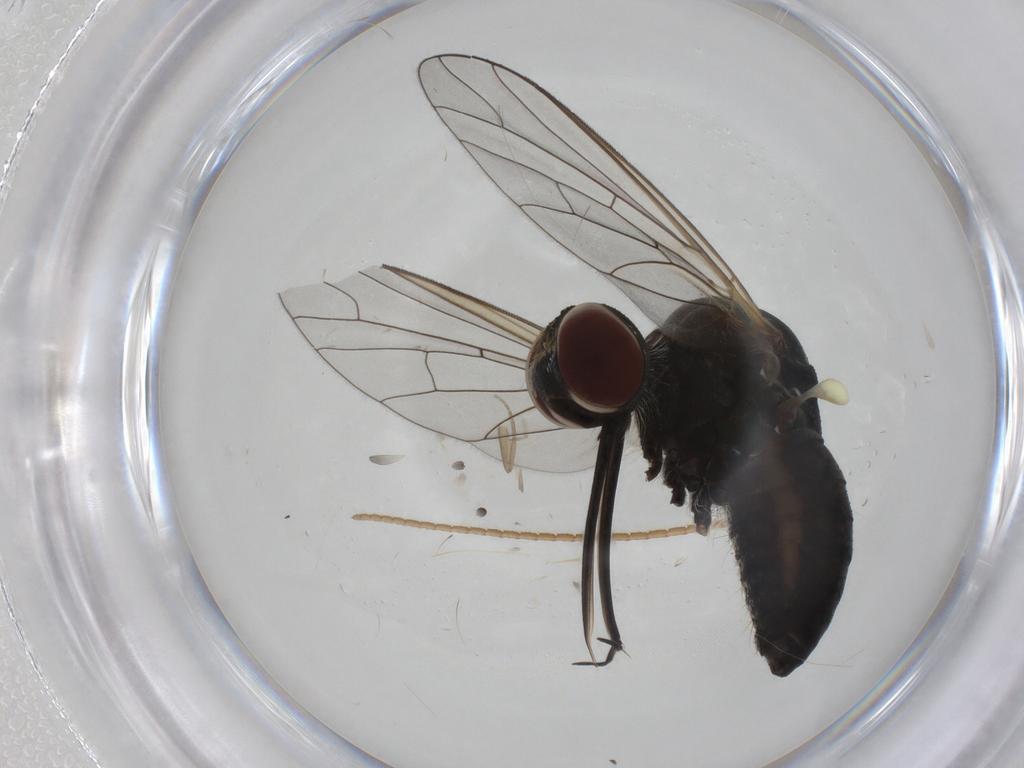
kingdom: Animalia
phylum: Arthropoda
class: Insecta
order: Diptera
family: Bombyliidae
